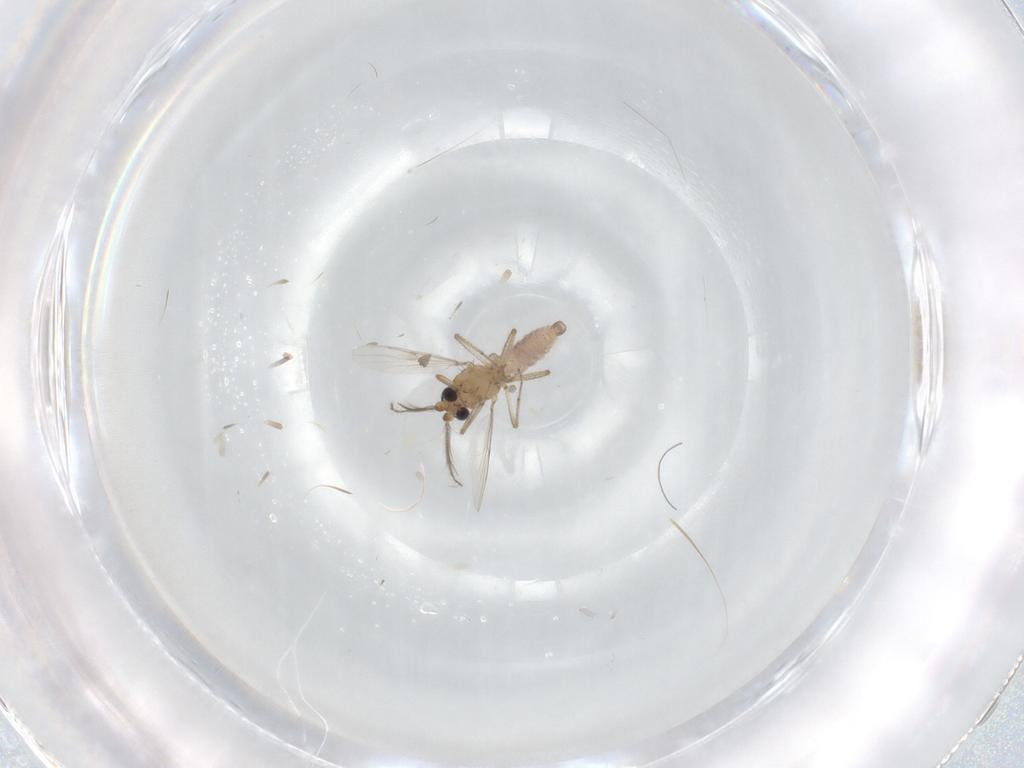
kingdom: Animalia
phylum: Arthropoda
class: Insecta
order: Diptera
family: Ceratopogonidae
